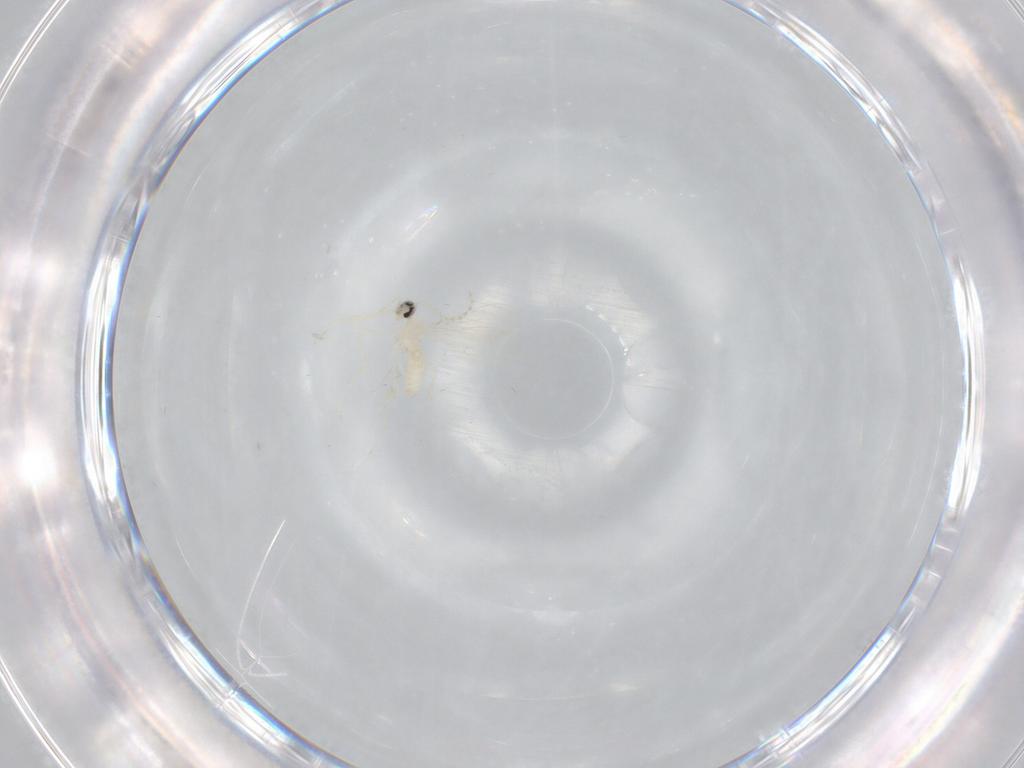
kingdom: Animalia
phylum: Arthropoda
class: Insecta
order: Diptera
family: Cecidomyiidae
